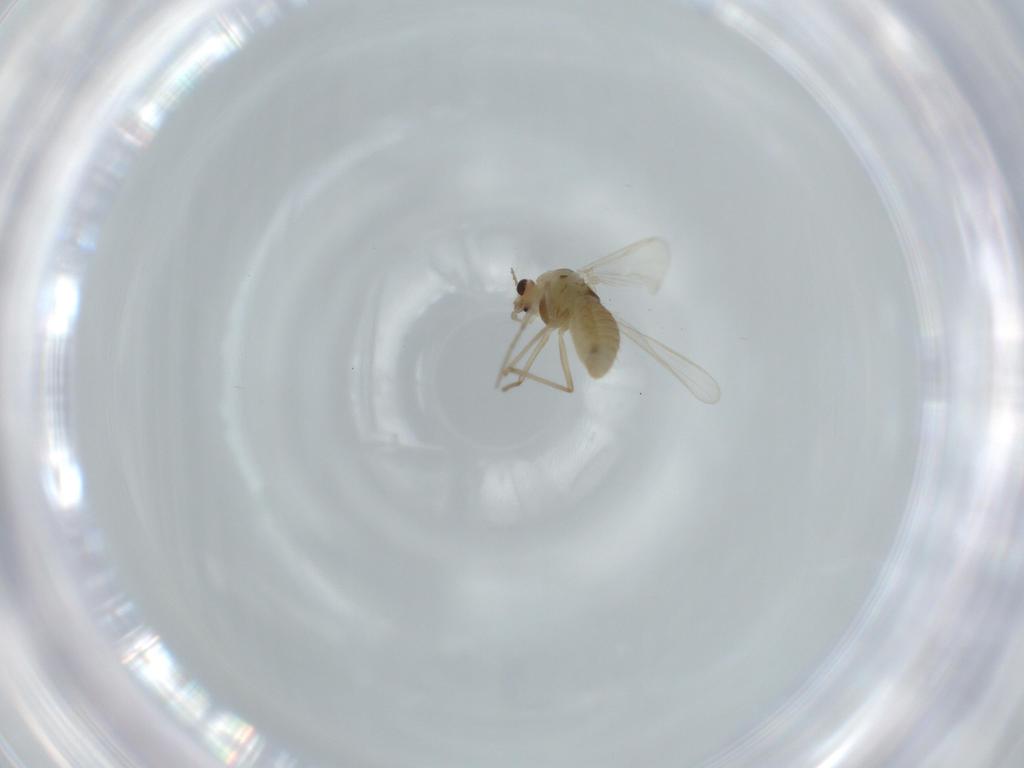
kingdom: Animalia
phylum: Arthropoda
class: Insecta
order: Diptera
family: Chironomidae
